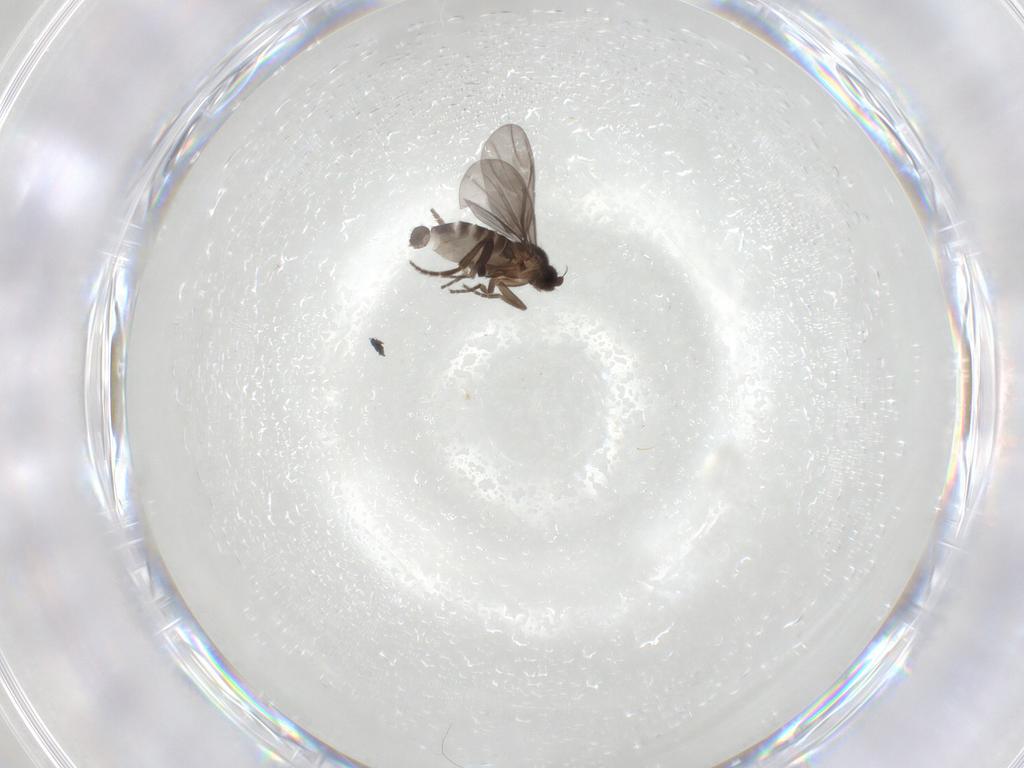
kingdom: Animalia
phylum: Arthropoda
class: Insecta
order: Diptera
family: Phoridae
